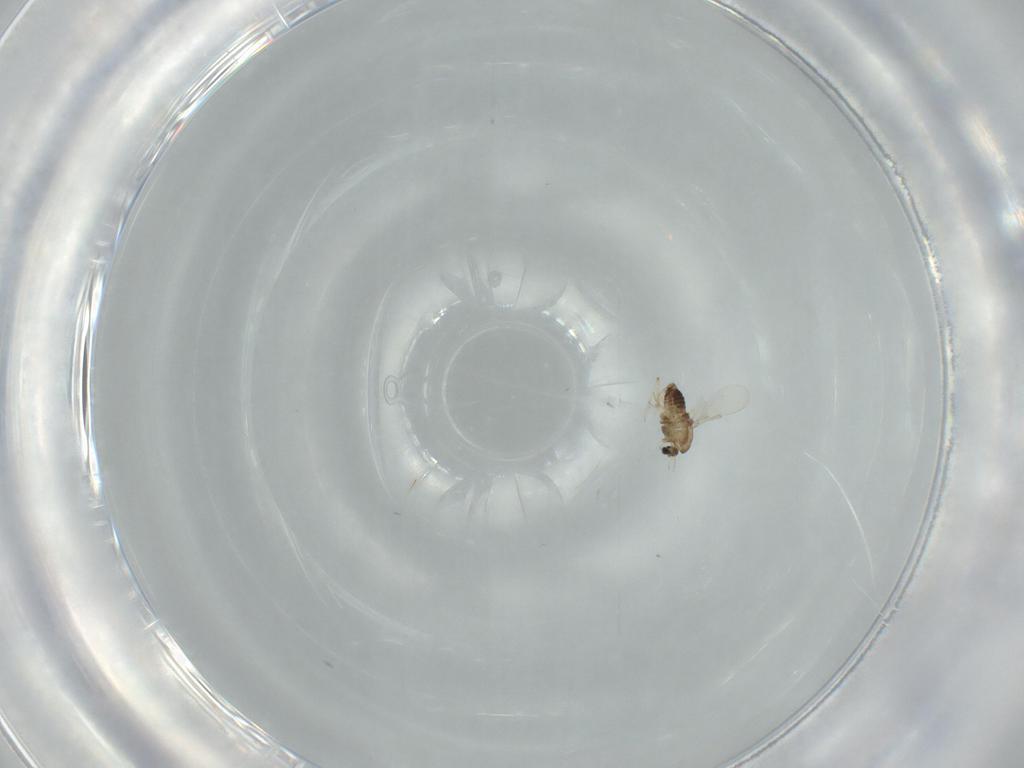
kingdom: Animalia
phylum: Arthropoda
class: Insecta
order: Diptera
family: Chironomidae
